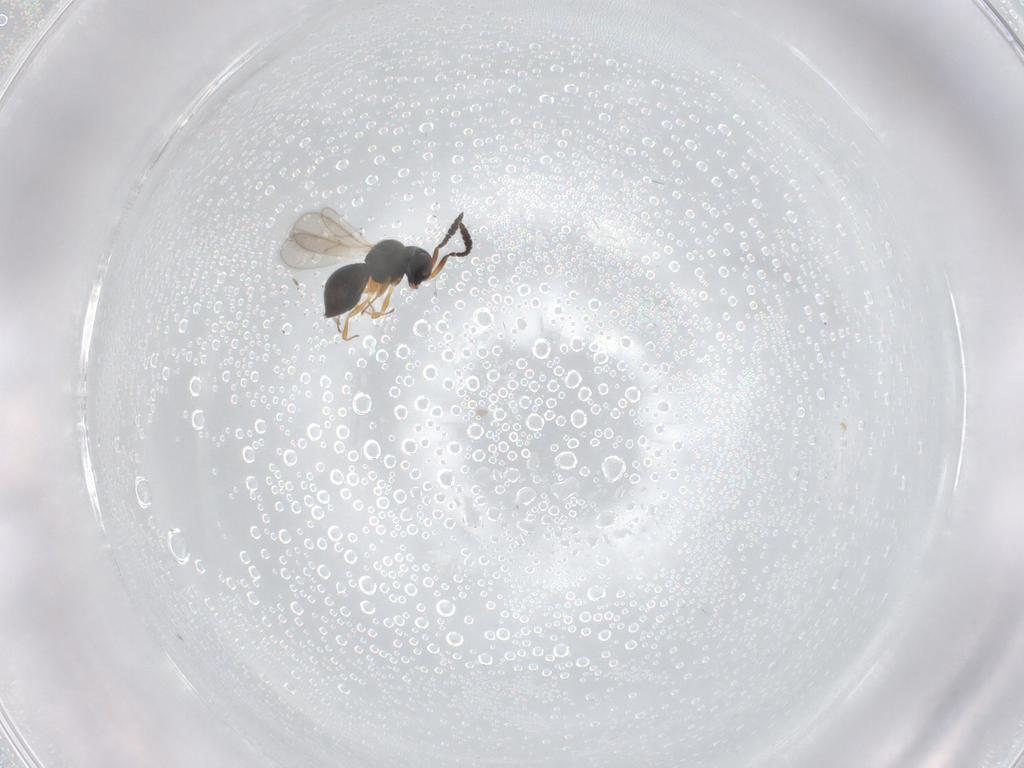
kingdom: Animalia
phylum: Arthropoda
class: Insecta
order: Hymenoptera
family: Scelionidae
